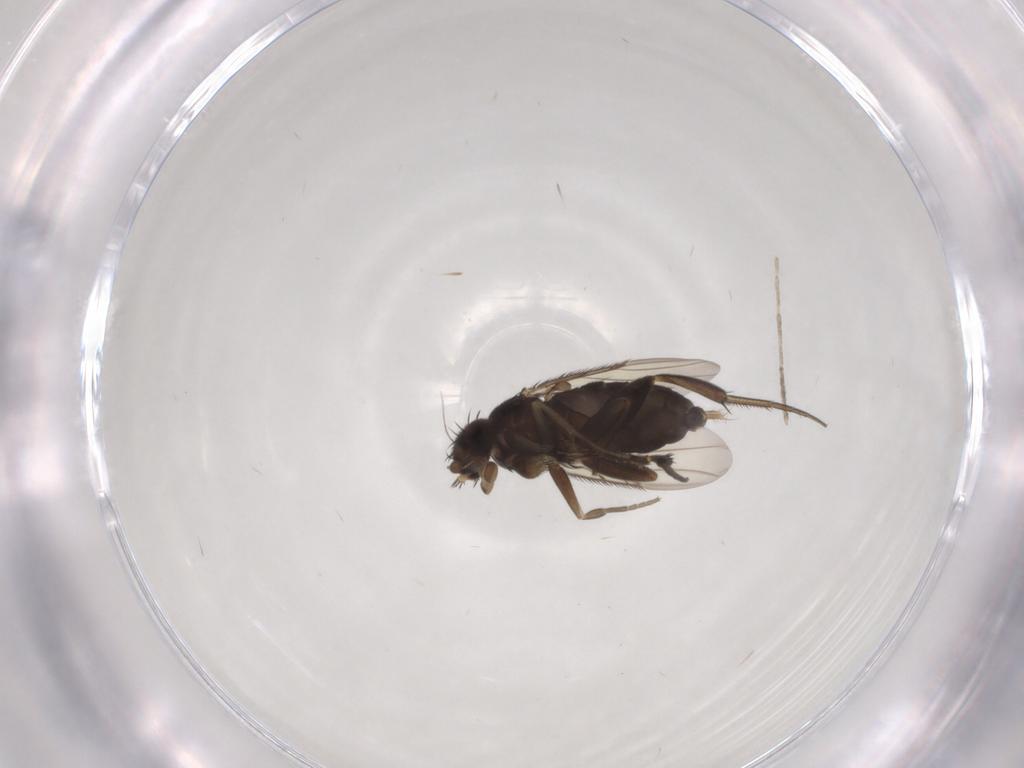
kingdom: Animalia
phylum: Arthropoda
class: Insecta
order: Diptera
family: Phoridae
